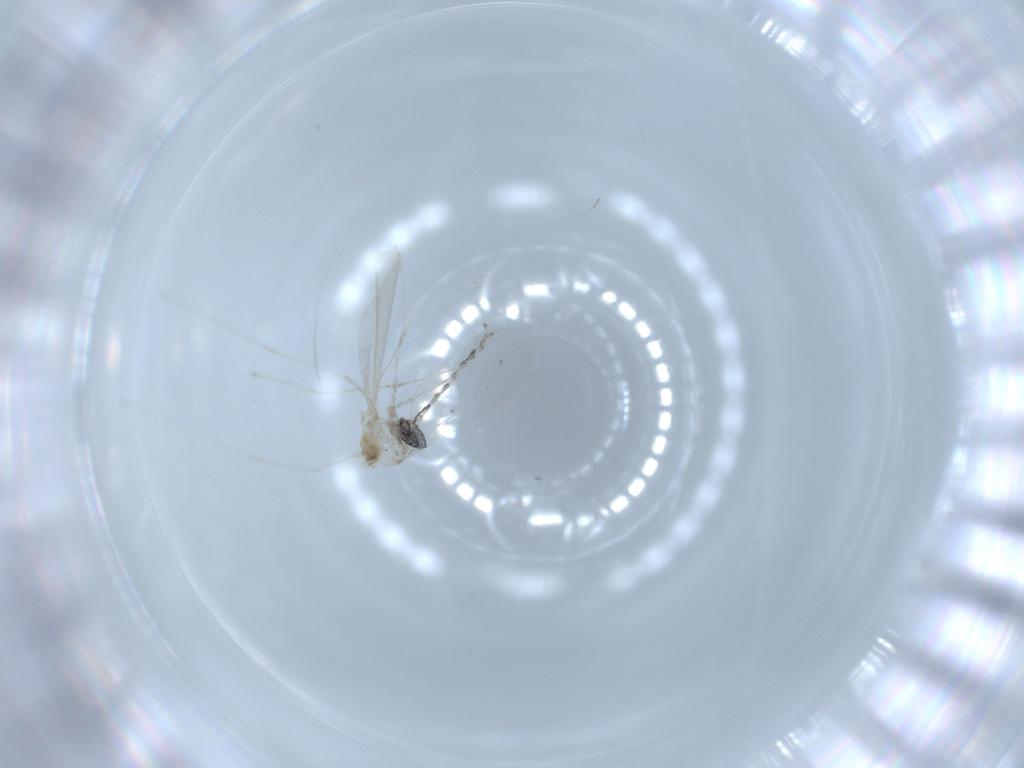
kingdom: Animalia
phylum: Arthropoda
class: Insecta
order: Diptera
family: Cecidomyiidae
